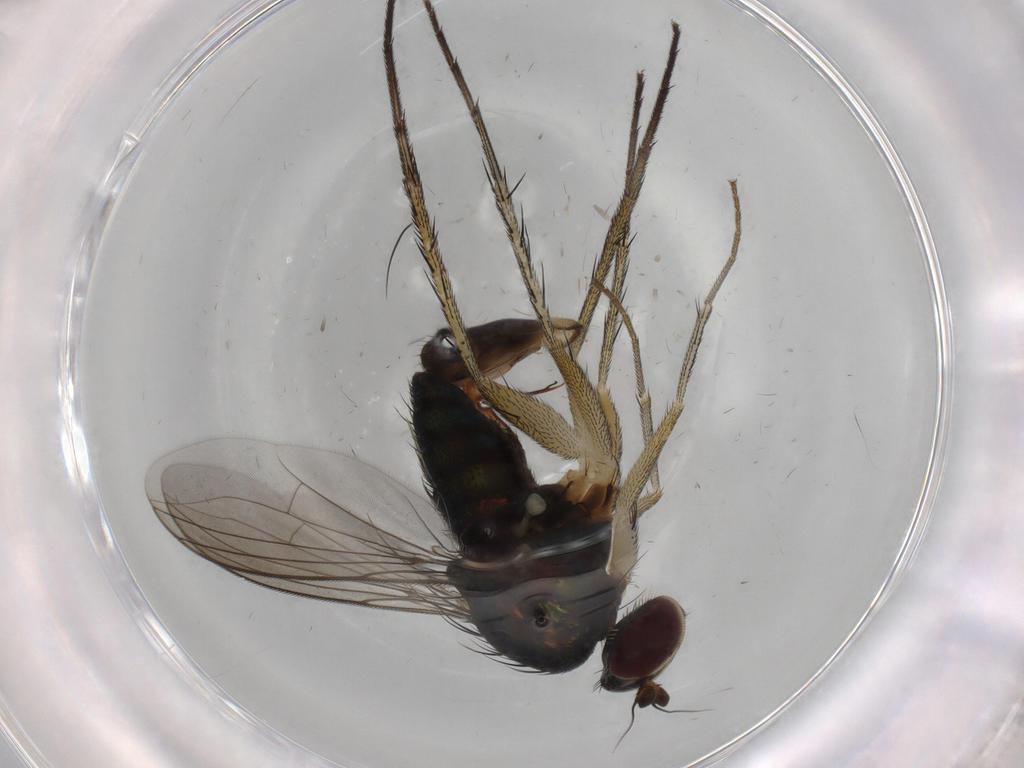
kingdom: Animalia
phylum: Arthropoda
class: Insecta
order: Diptera
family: Dolichopodidae
